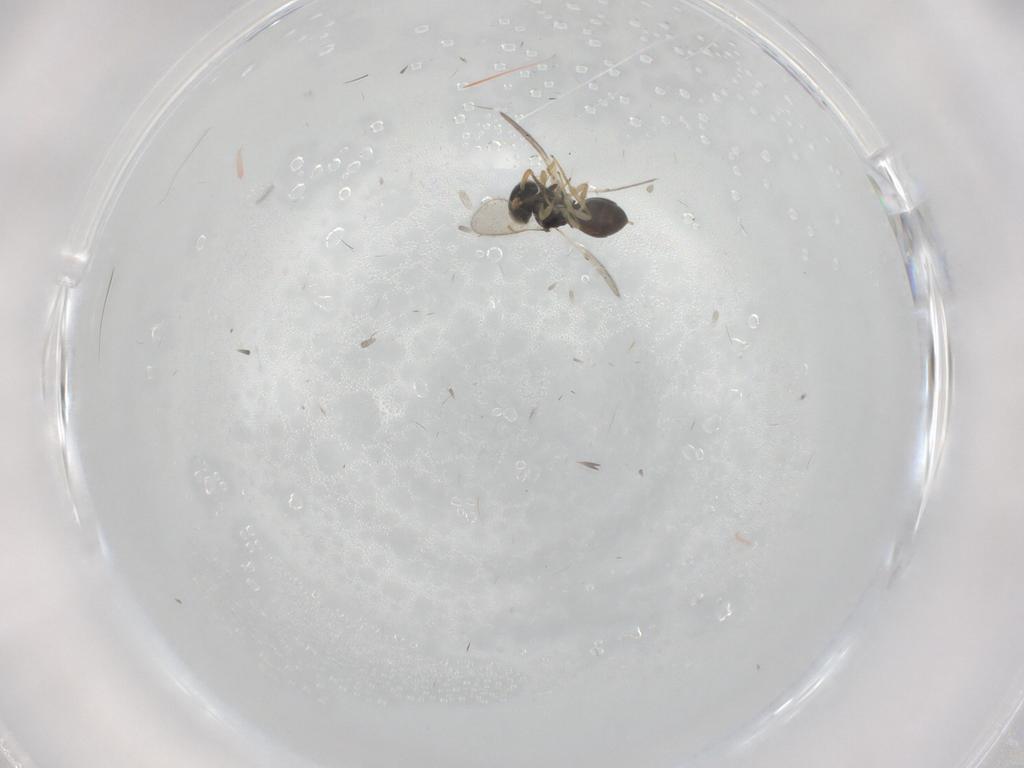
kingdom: Animalia
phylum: Arthropoda
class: Insecta
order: Hymenoptera
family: Scelionidae
